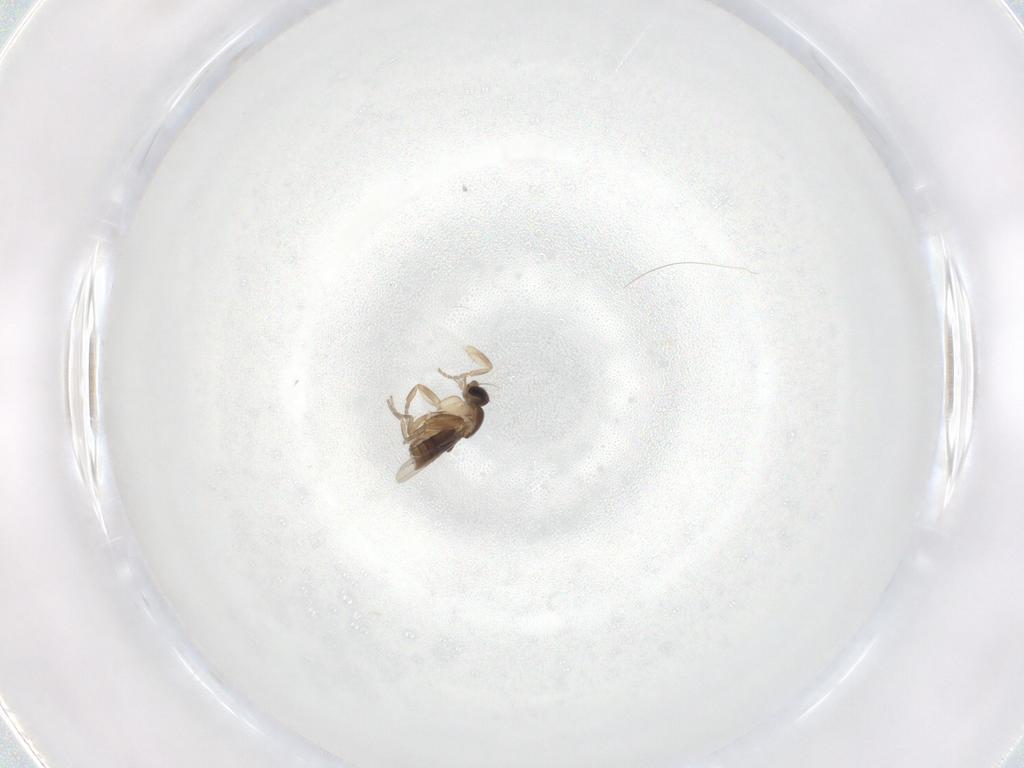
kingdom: Animalia
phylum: Arthropoda
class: Insecta
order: Diptera
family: Phoridae
